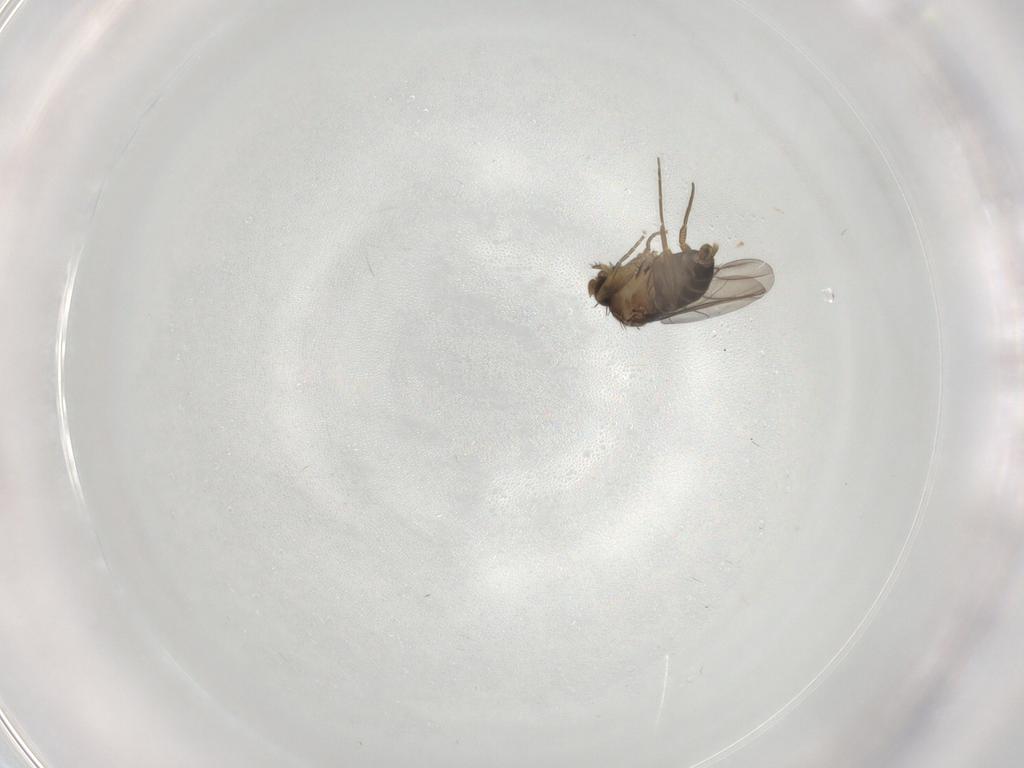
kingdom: Animalia
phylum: Arthropoda
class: Insecta
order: Diptera
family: Phoridae
